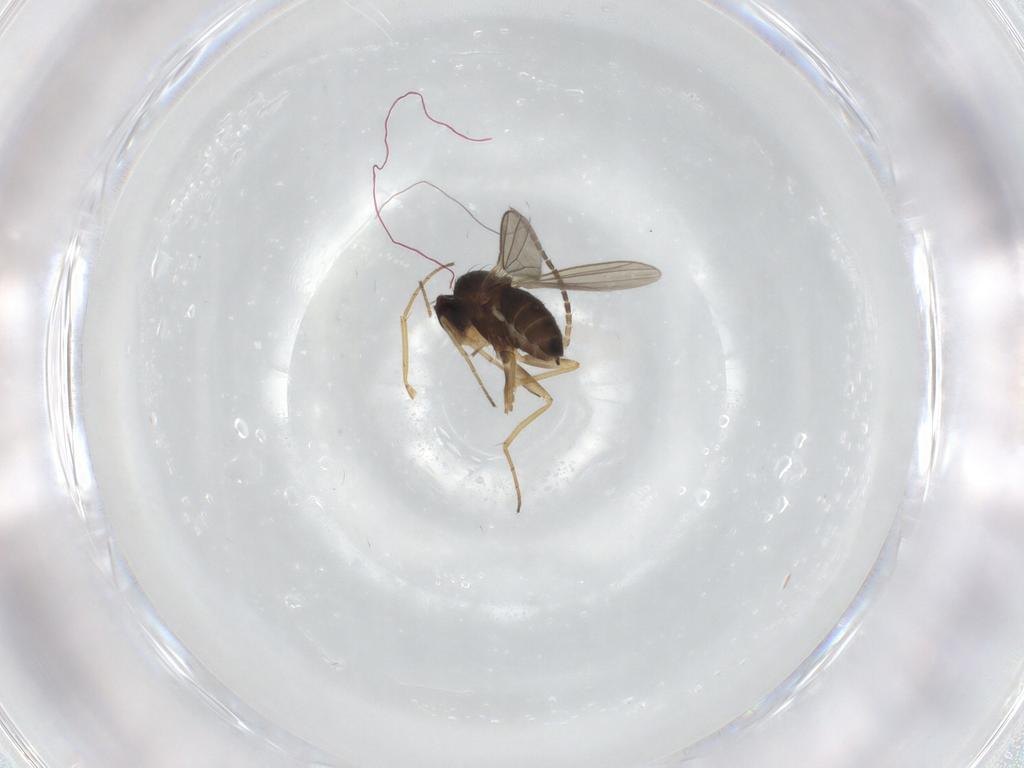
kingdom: Animalia
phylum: Arthropoda
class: Insecta
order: Diptera
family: Dolichopodidae
